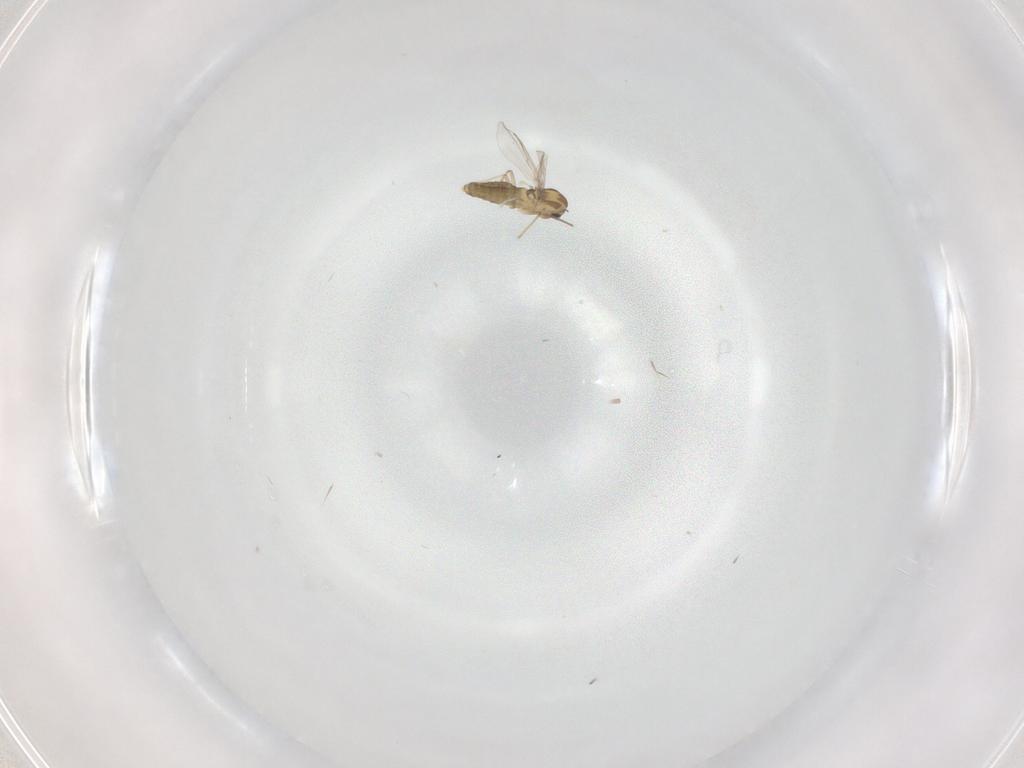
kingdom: Animalia
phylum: Arthropoda
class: Insecta
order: Diptera
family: Chironomidae
